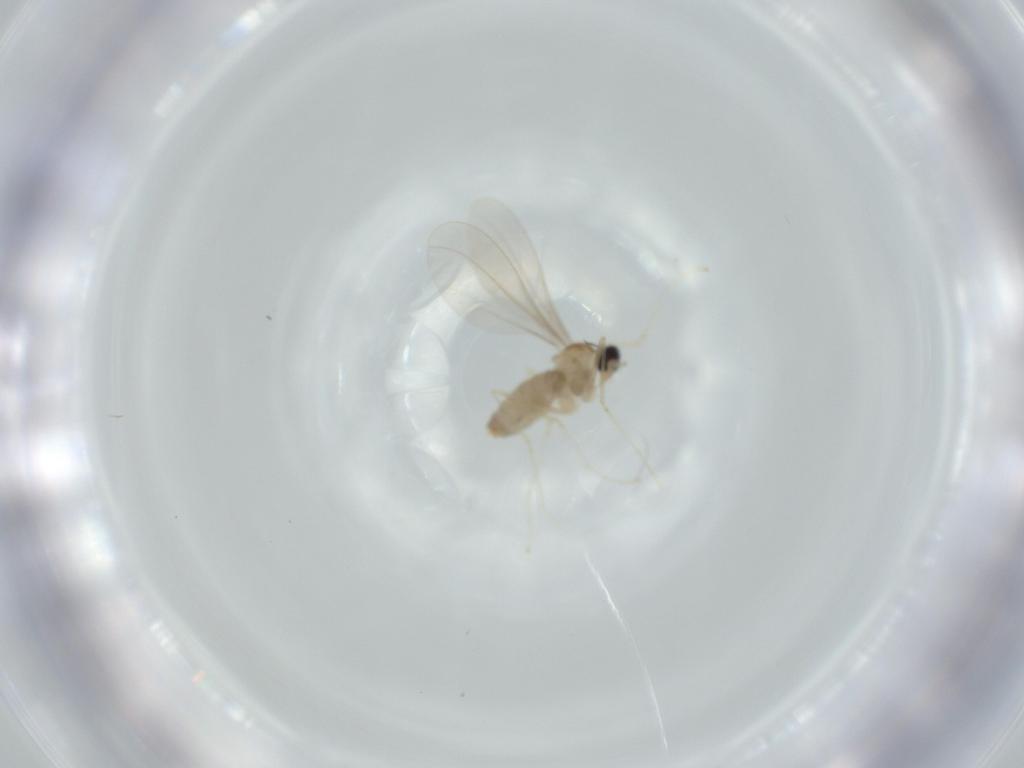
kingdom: Animalia
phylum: Arthropoda
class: Insecta
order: Diptera
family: Cecidomyiidae
